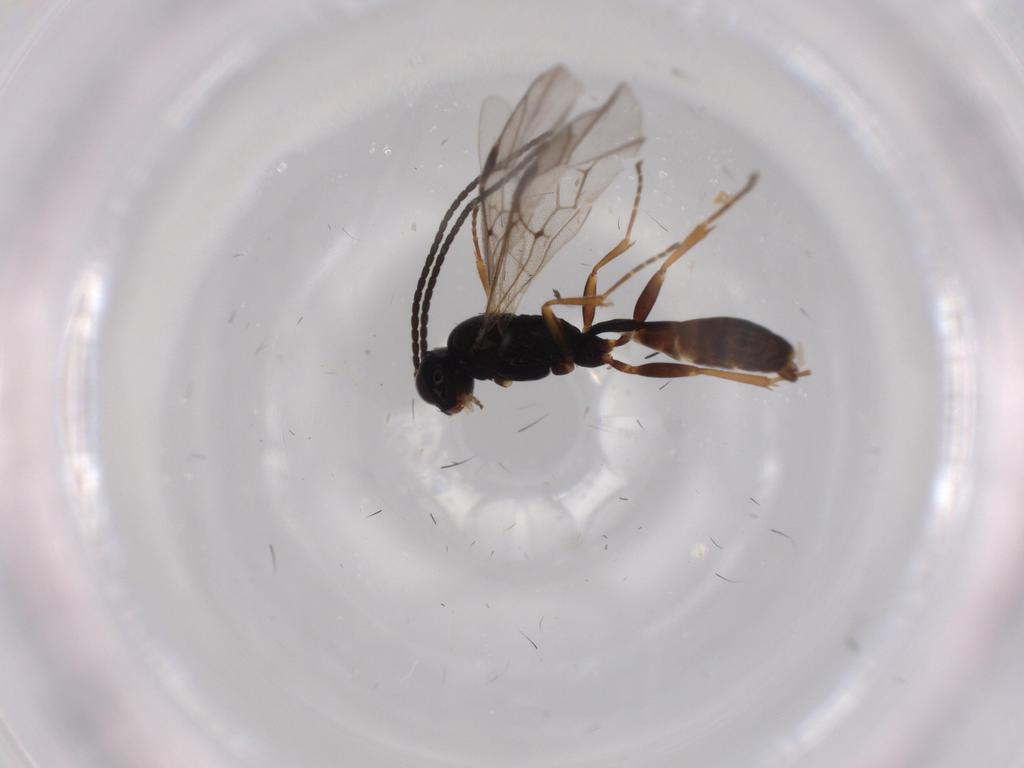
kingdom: Animalia
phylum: Arthropoda
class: Insecta
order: Hymenoptera
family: Ichneumonidae
